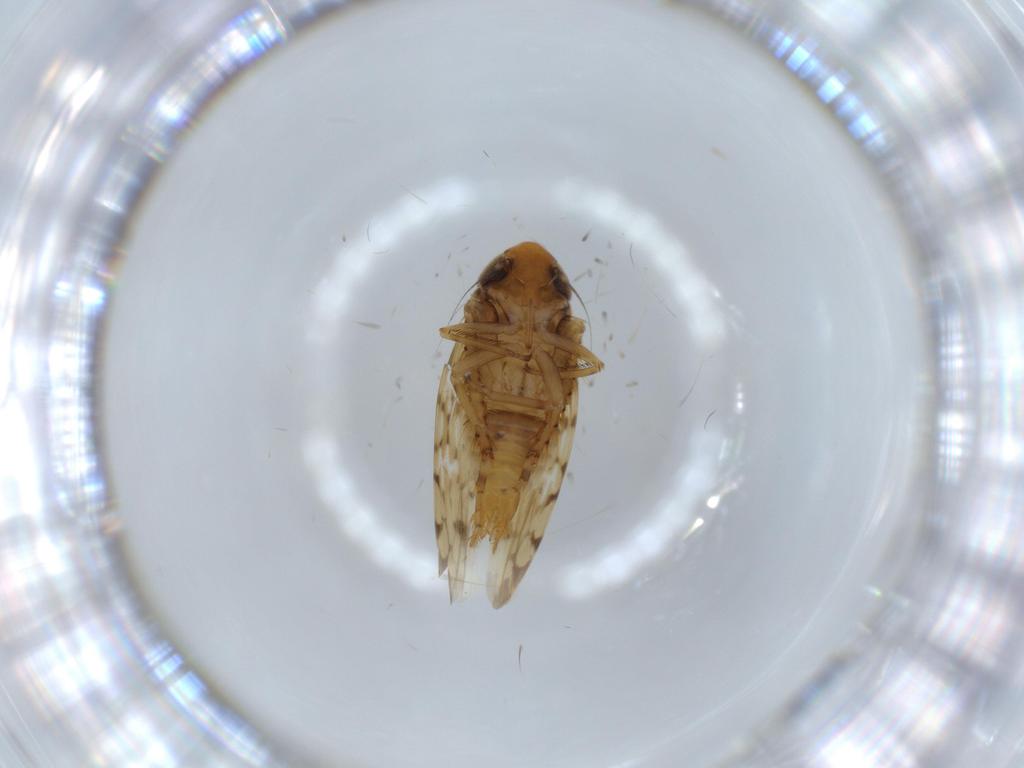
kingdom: Animalia
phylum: Arthropoda
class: Insecta
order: Hemiptera
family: Cicadellidae
